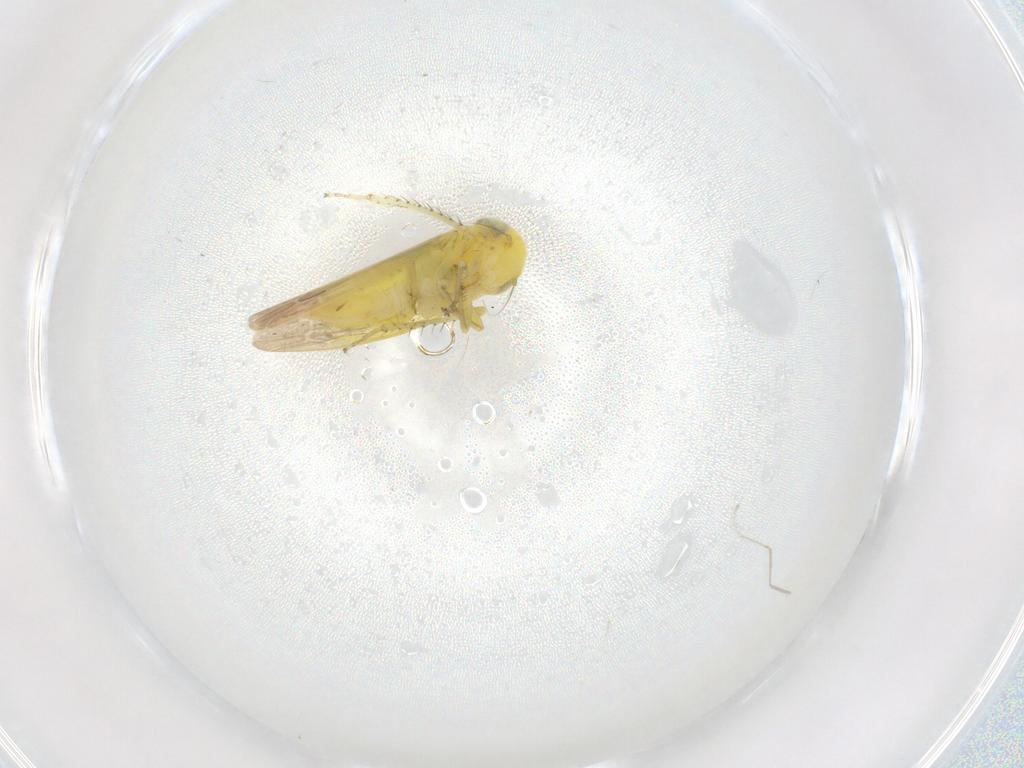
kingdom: Animalia
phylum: Arthropoda
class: Insecta
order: Hemiptera
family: Cicadellidae
